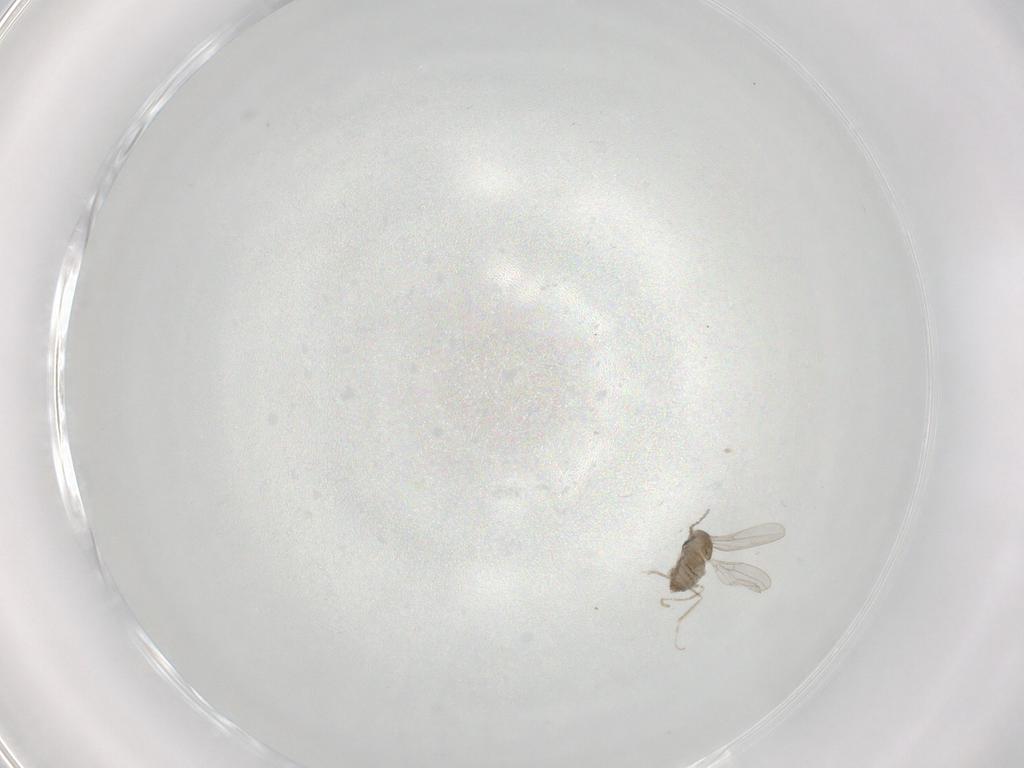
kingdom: Animalia
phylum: Arthropoda
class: Insecta
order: Diptera
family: Cecidomyiidae
